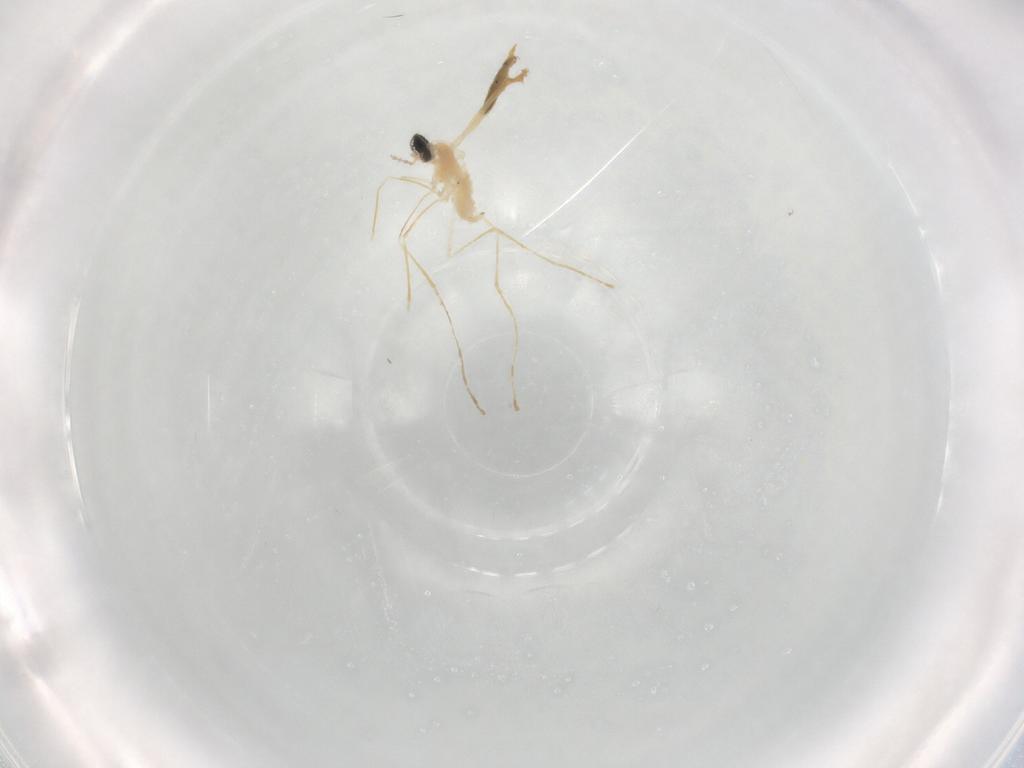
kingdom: Animalia
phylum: Arthropoda
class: Insecta
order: Diptera
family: Cecidomyiidae
